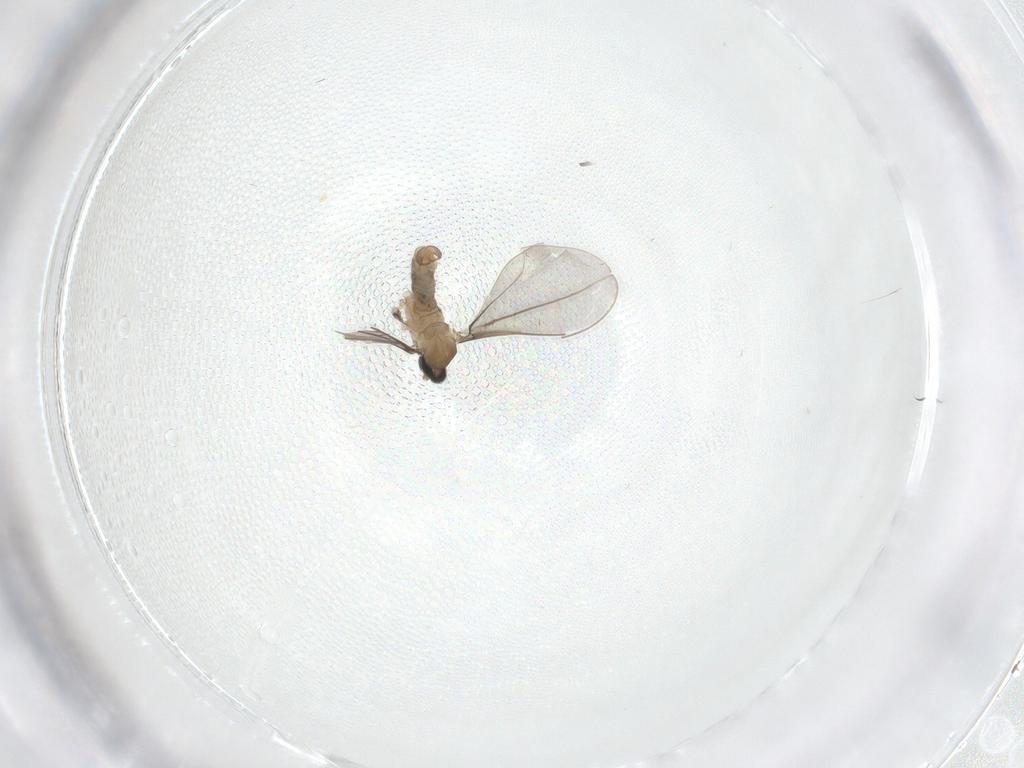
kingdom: Animalia
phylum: Arthropoda
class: Insecta
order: Diptera
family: Cecidomyiidae
